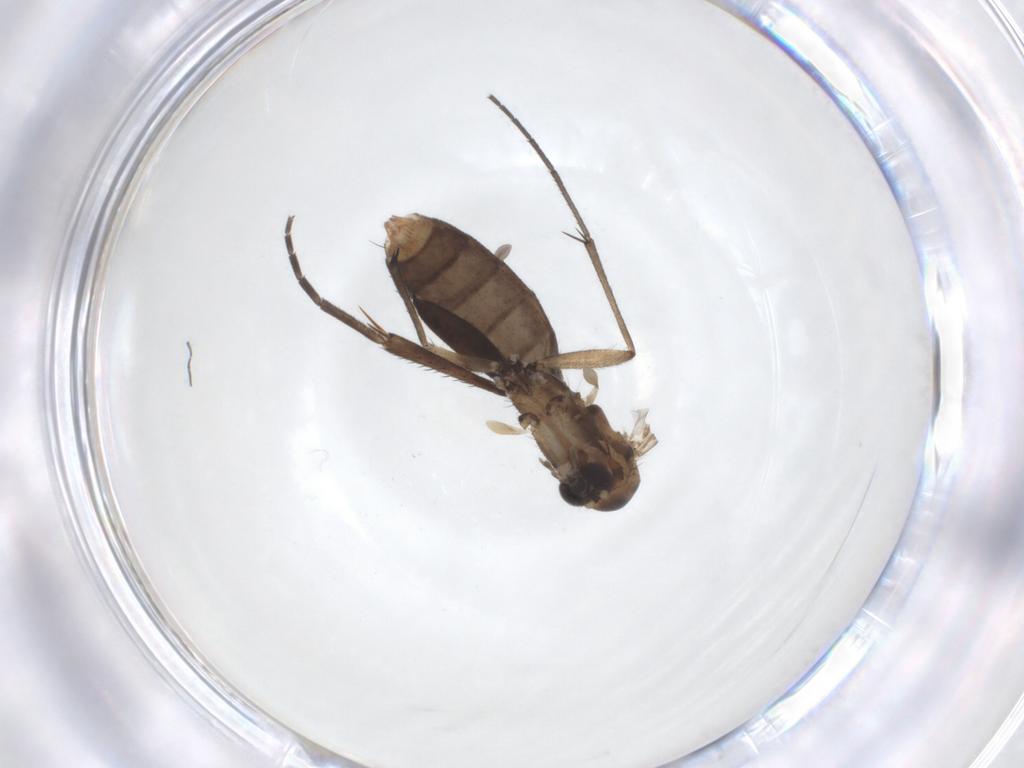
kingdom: Animalia
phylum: Arthropoda
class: Insecta
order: Diptera
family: Mycetophilidae
